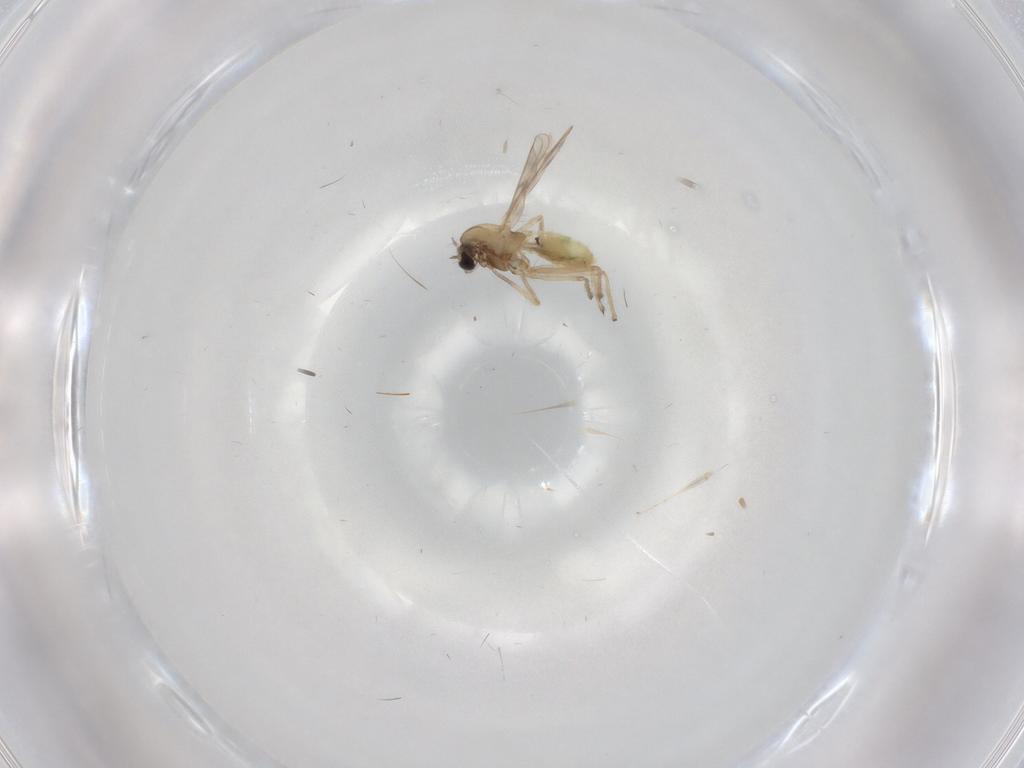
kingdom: Animalia
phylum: Arthropoda
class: Insecta
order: Diptera
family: Chironomidae
